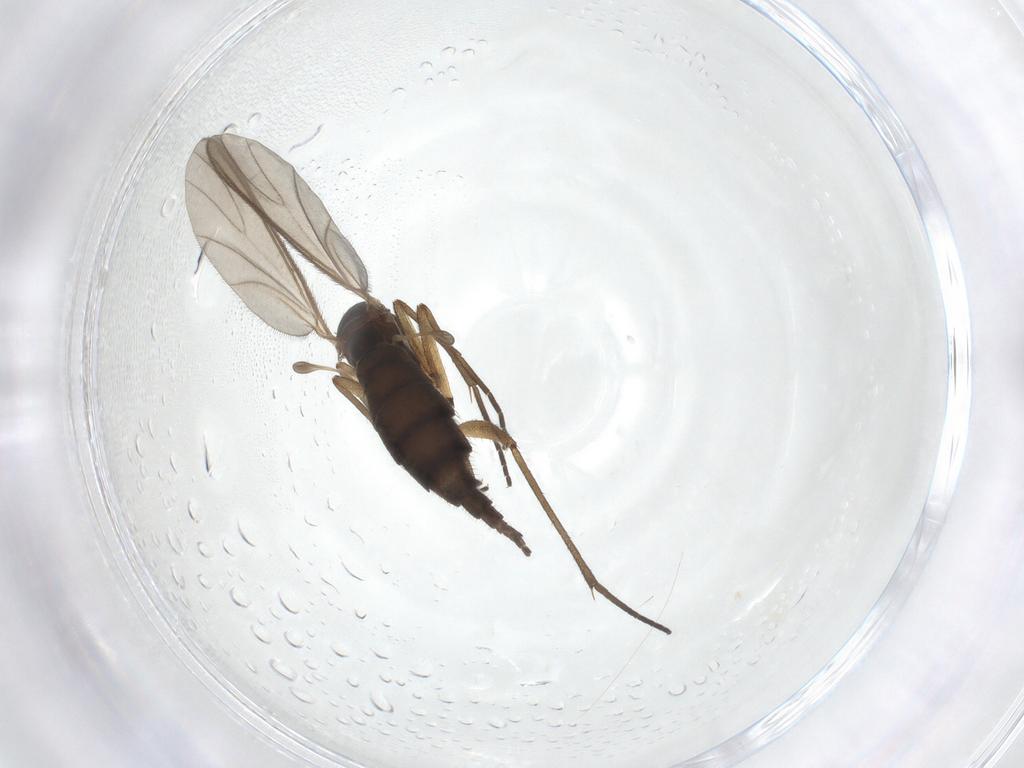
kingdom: Animalia
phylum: Arthropoda
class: Insecta
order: Diptera
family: Sciaridae
